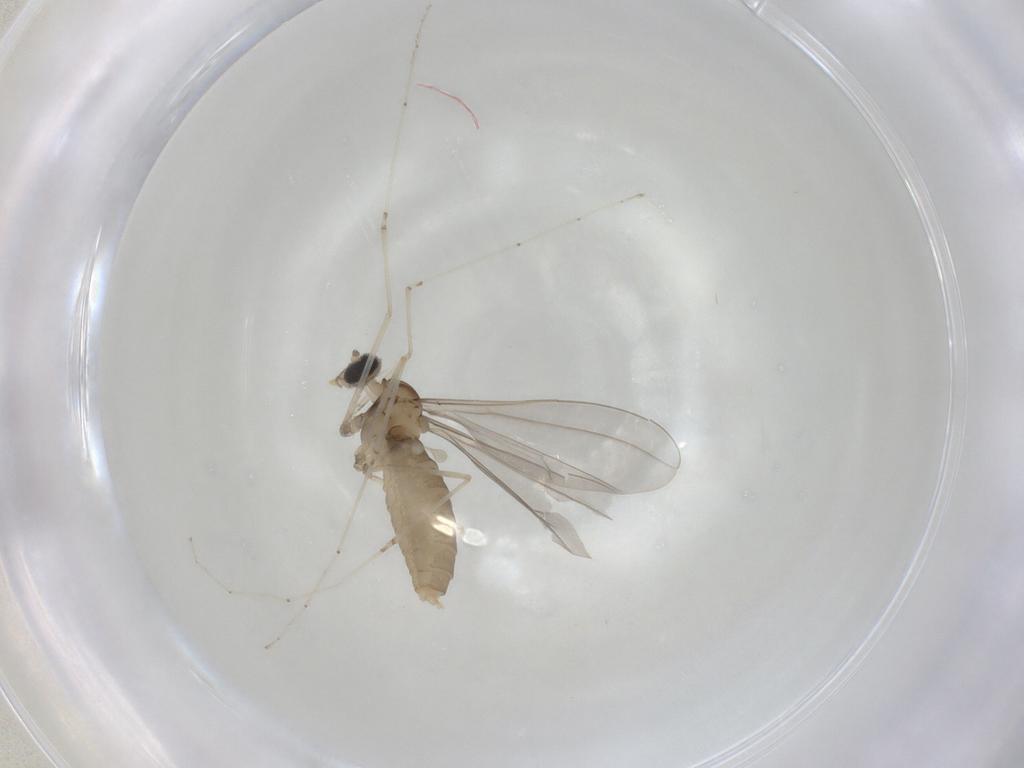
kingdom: Animalia
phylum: Arthropoda
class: Insecta
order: Diptera
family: Cecidomyiidae
